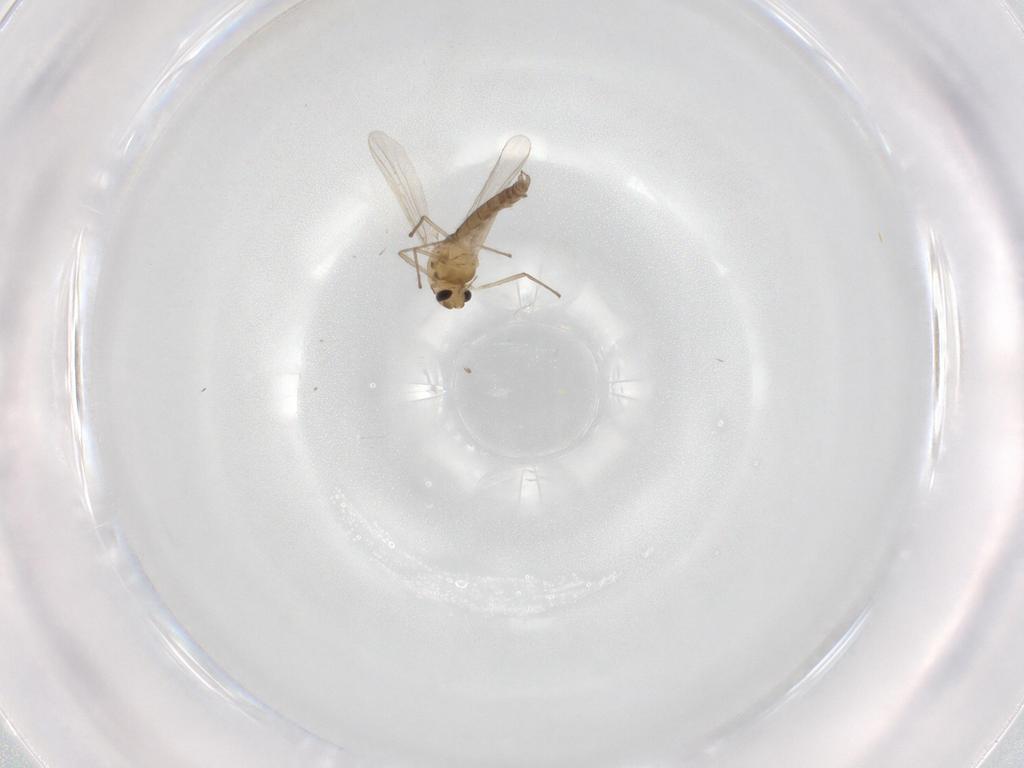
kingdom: Animalia
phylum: Arthropoda
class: Insecta
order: Diptera
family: Chironomidae
